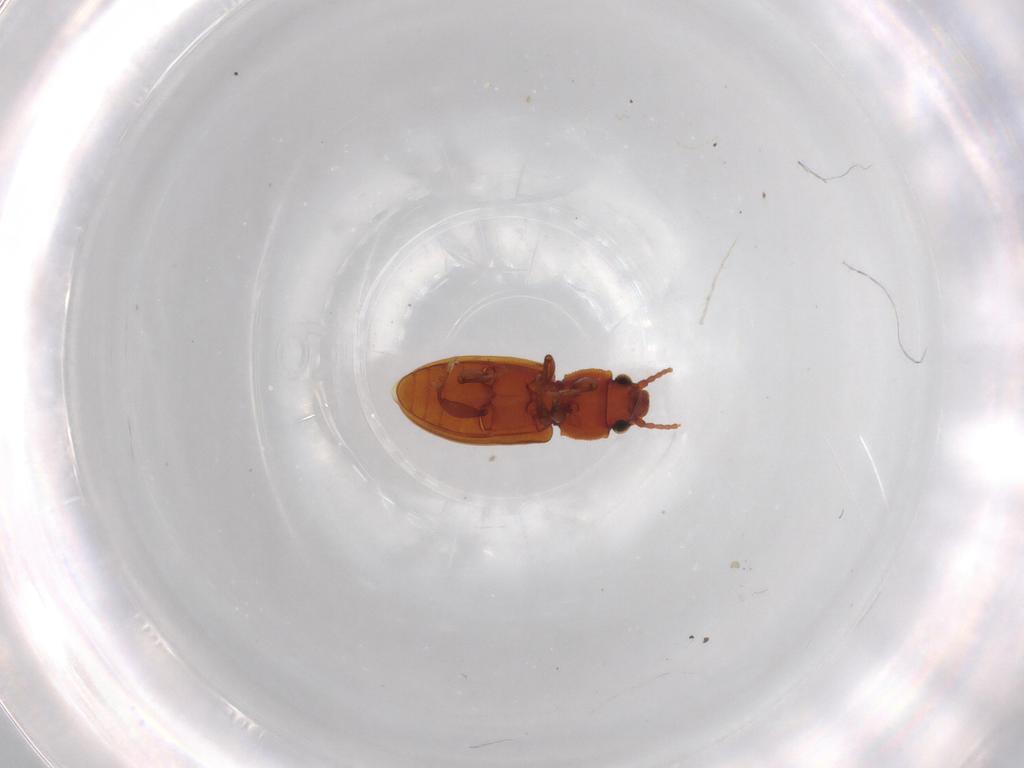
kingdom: Animalia
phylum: Arthropoda
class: Insecta
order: Coleoptera
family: Silvanidae
